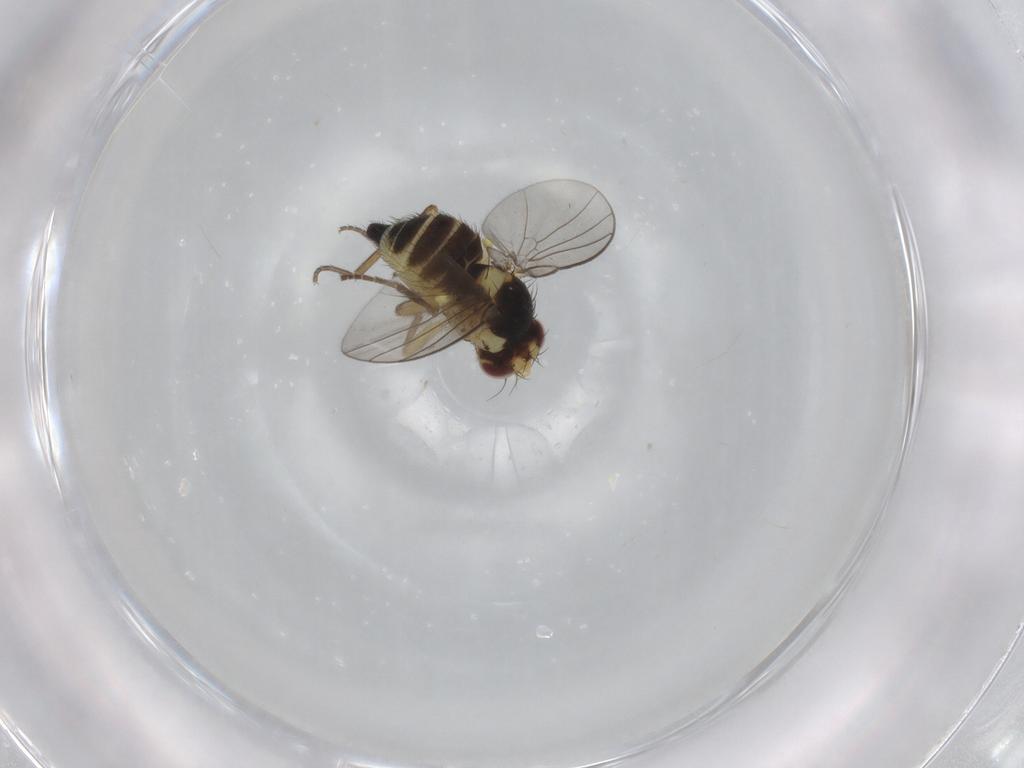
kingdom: Animalia
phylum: Arthropoda
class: Insecta
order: Diptera
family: Agromyzidae
